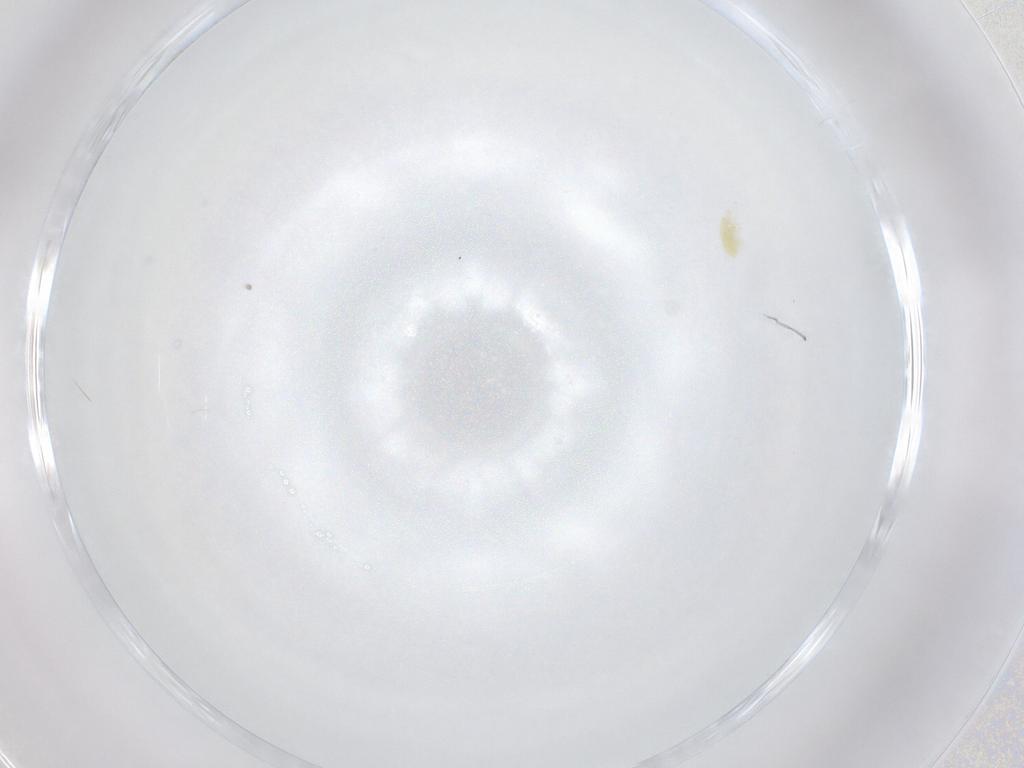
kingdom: Animalia
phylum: Arthropoda
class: Arachnida
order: Trombidiformes
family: Eupodidae
